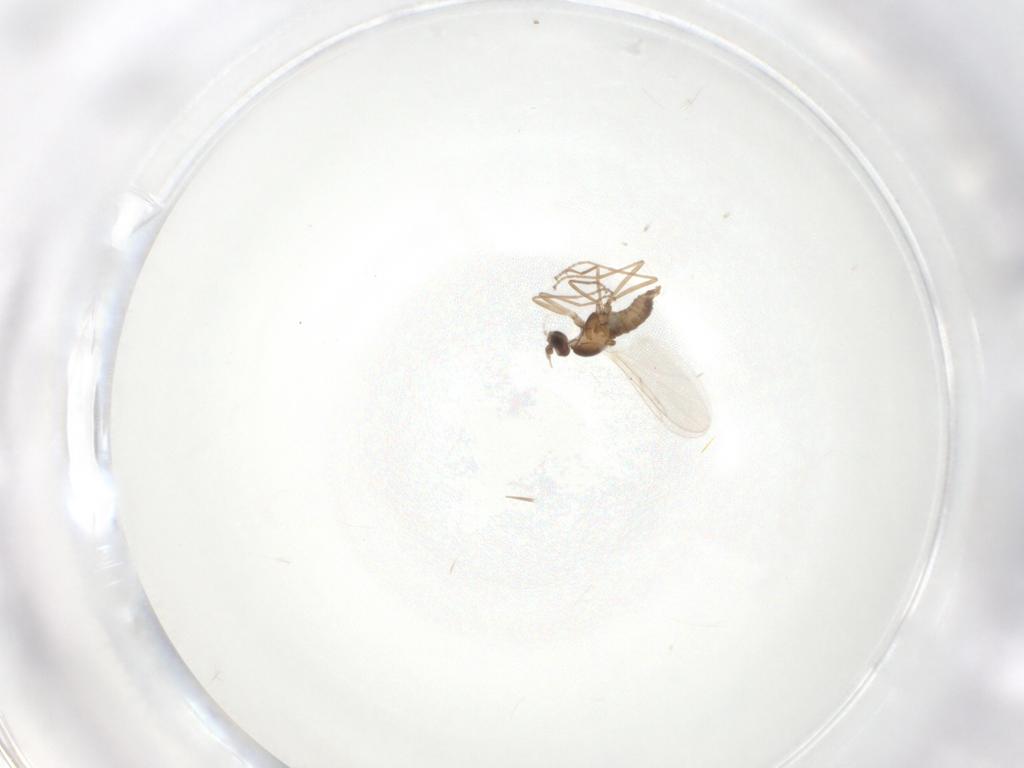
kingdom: Animalia
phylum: Arthropoda
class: Insecta
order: Diptera
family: Cecidomyiidae
